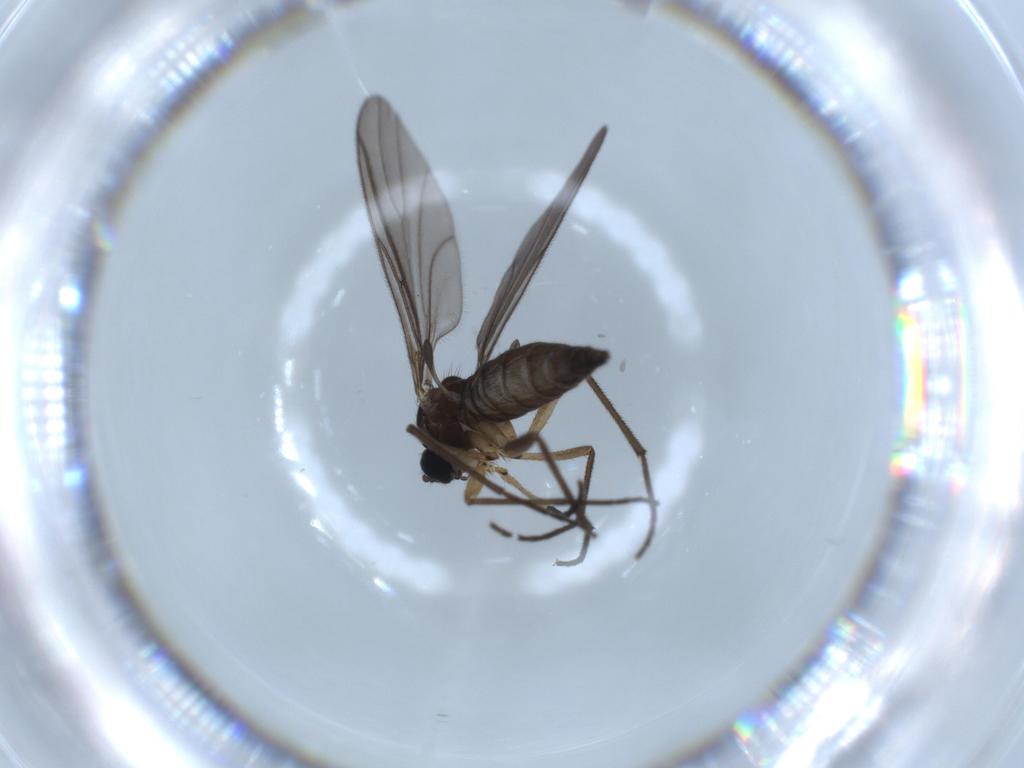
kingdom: Animalia
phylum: Arthropoda
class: Insecta
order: Diptera
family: Sciaridae
